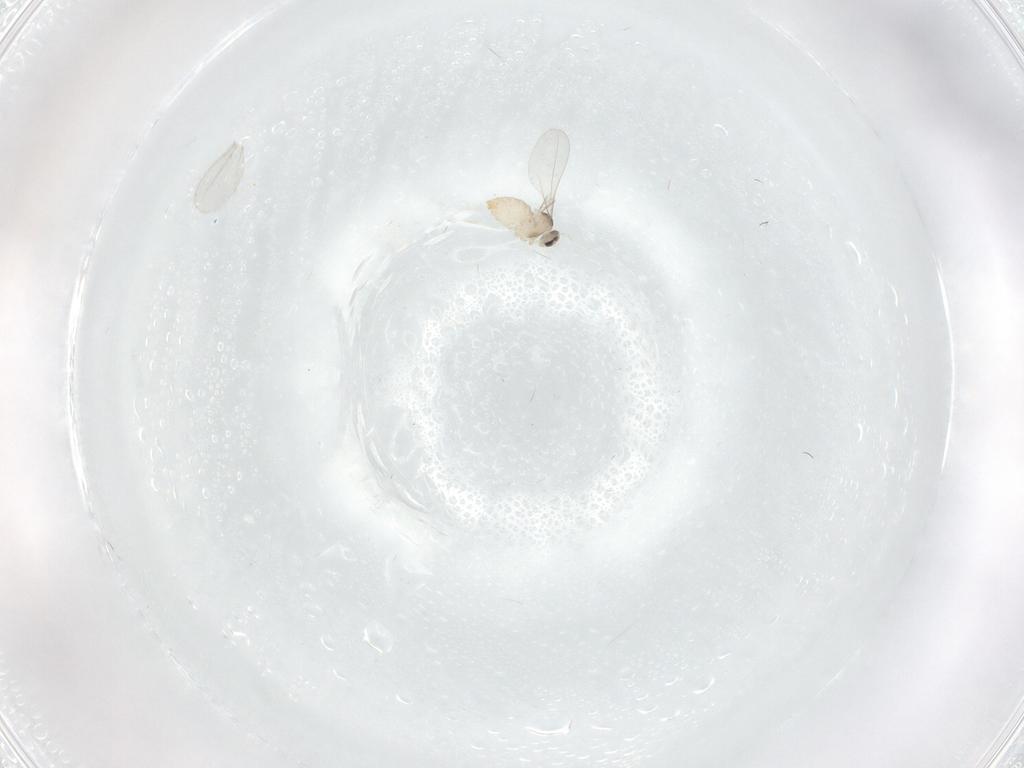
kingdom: Animalia
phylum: Arthropoda
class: Insecta
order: Diptera
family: Cecidomyiidae
